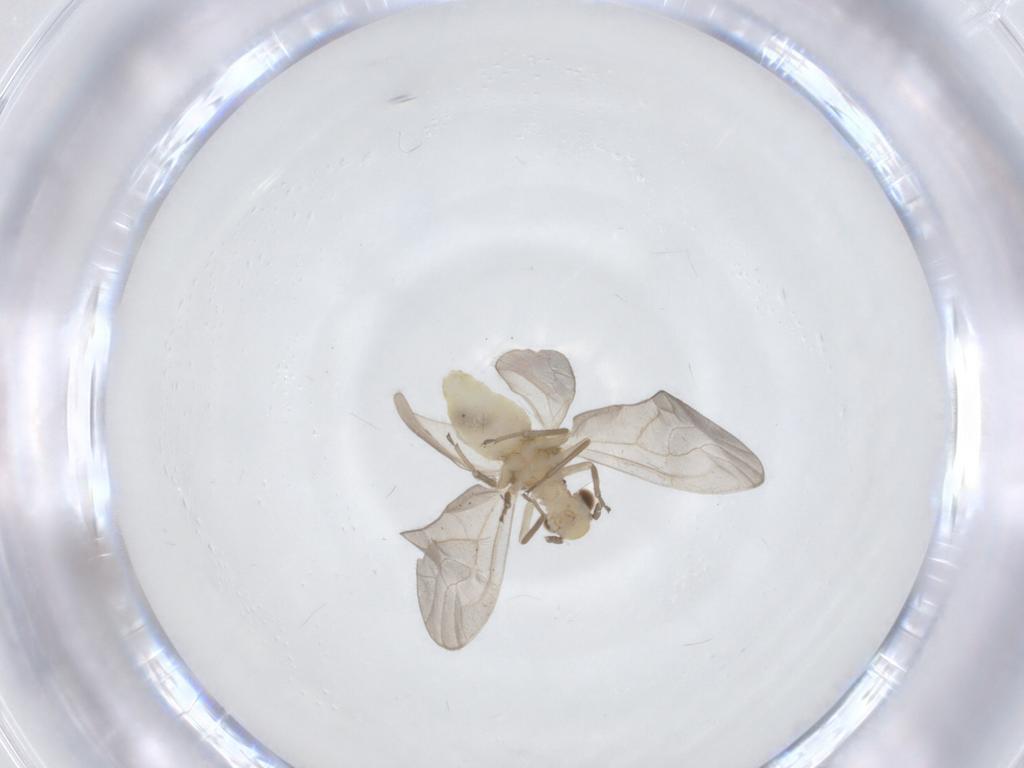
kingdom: Animalia
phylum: Arthropoda
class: Insecta
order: Psocodea
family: Caeciliusidae
